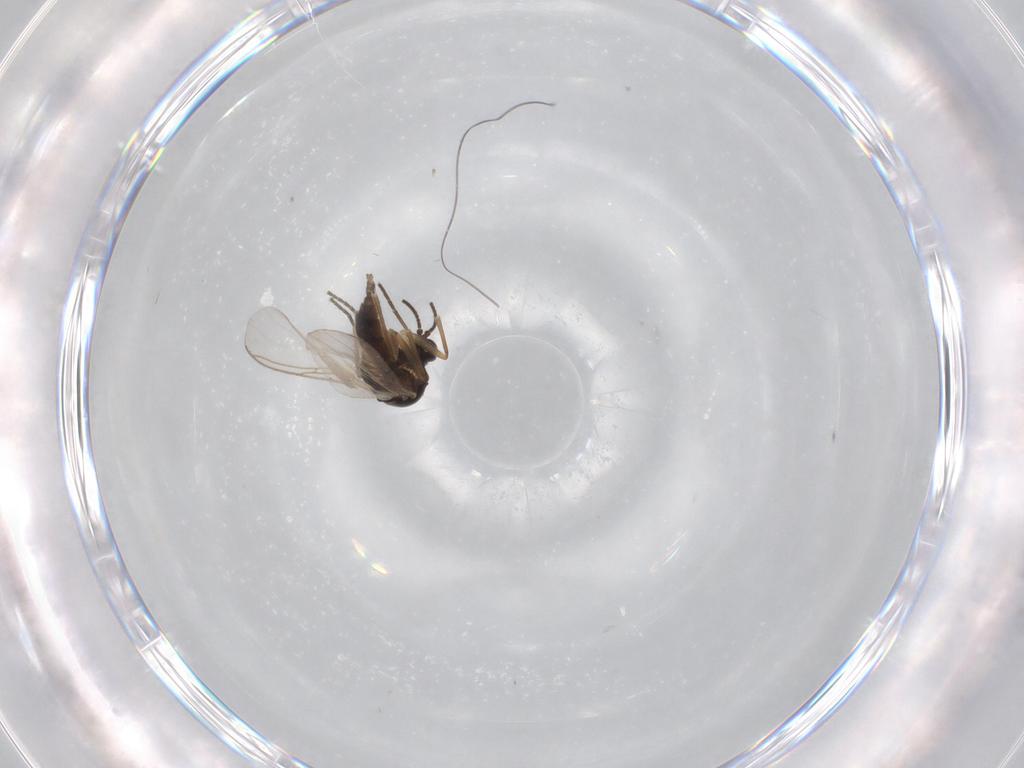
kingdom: Animalia
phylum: Arthropoda
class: Insecta
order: Diptera
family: Sciaridae
